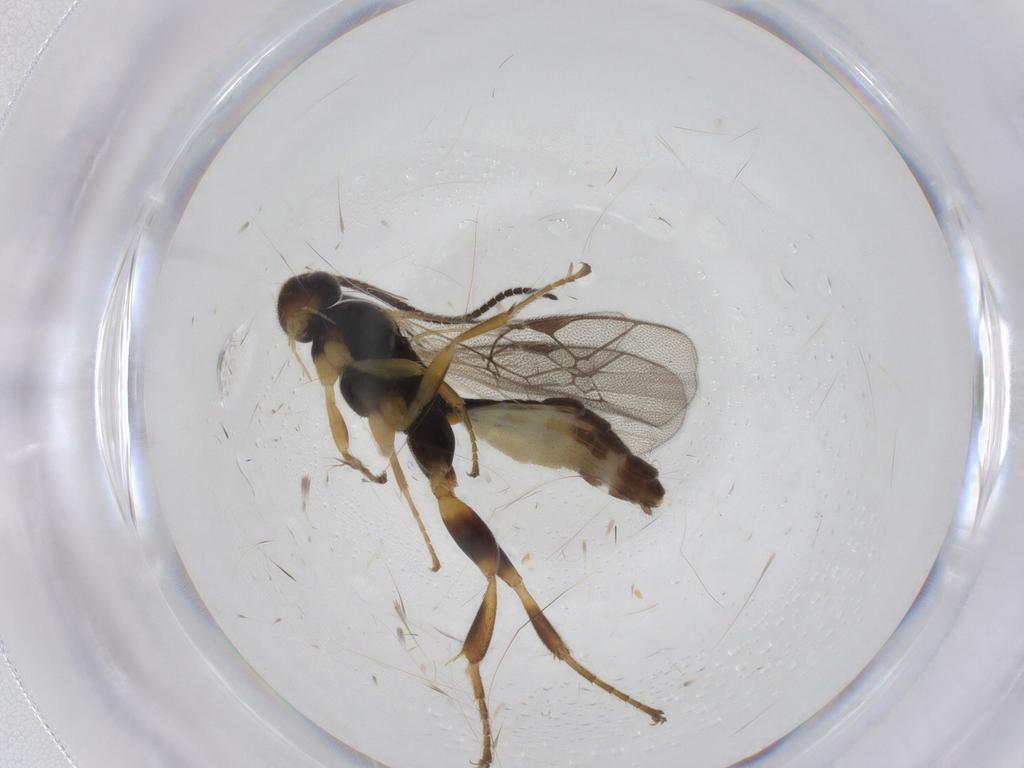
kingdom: Animalia
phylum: Arthropoda
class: Insecta
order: Hymenoptera
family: Ichneumonidae
